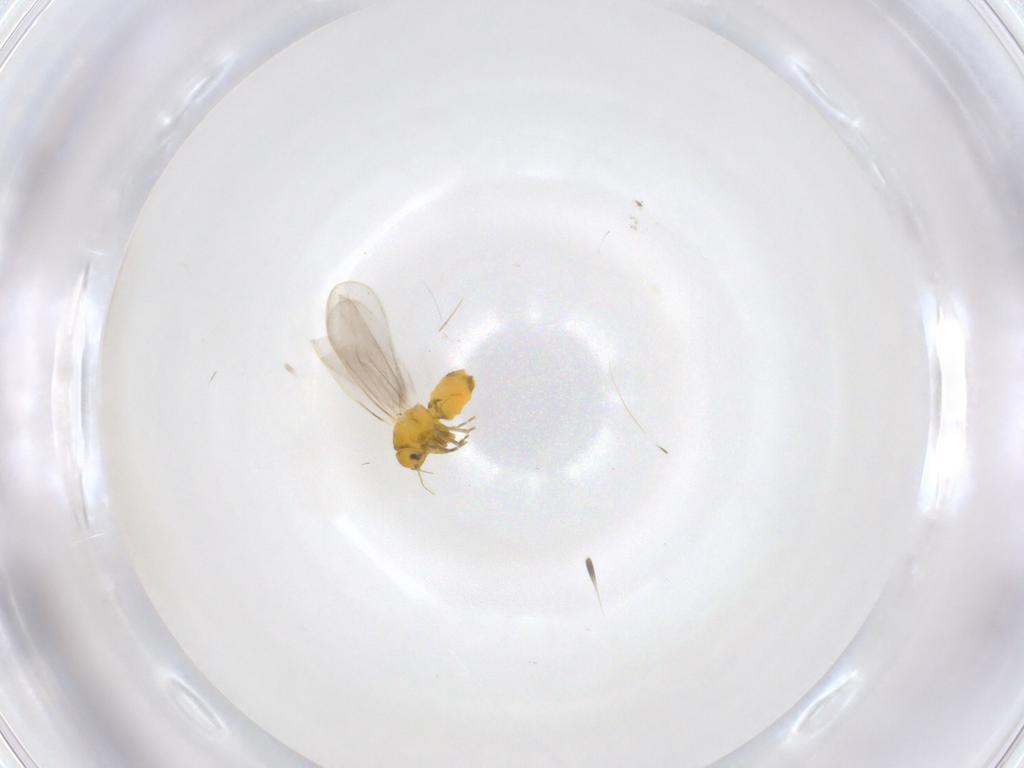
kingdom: Animalia
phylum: Arthropoda
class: Insecta
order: Hemiptera
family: Aleyrodidae
